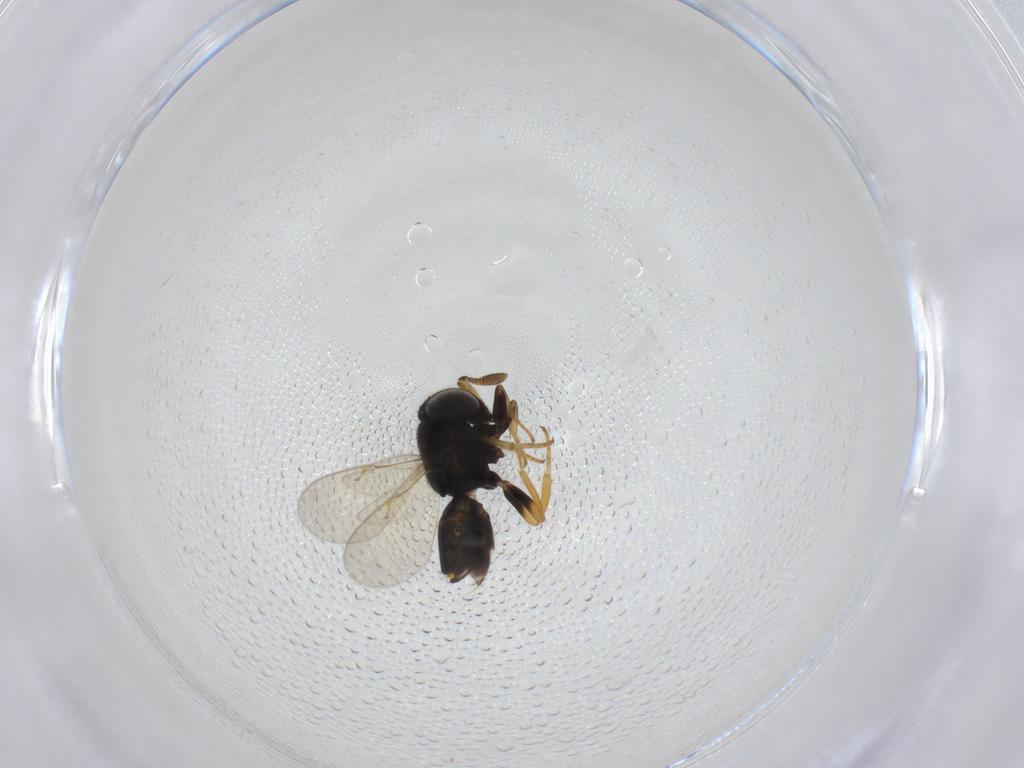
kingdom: Animalia
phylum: Arthropoda
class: Insecta
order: Hymenoptera
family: Encyrtidae
